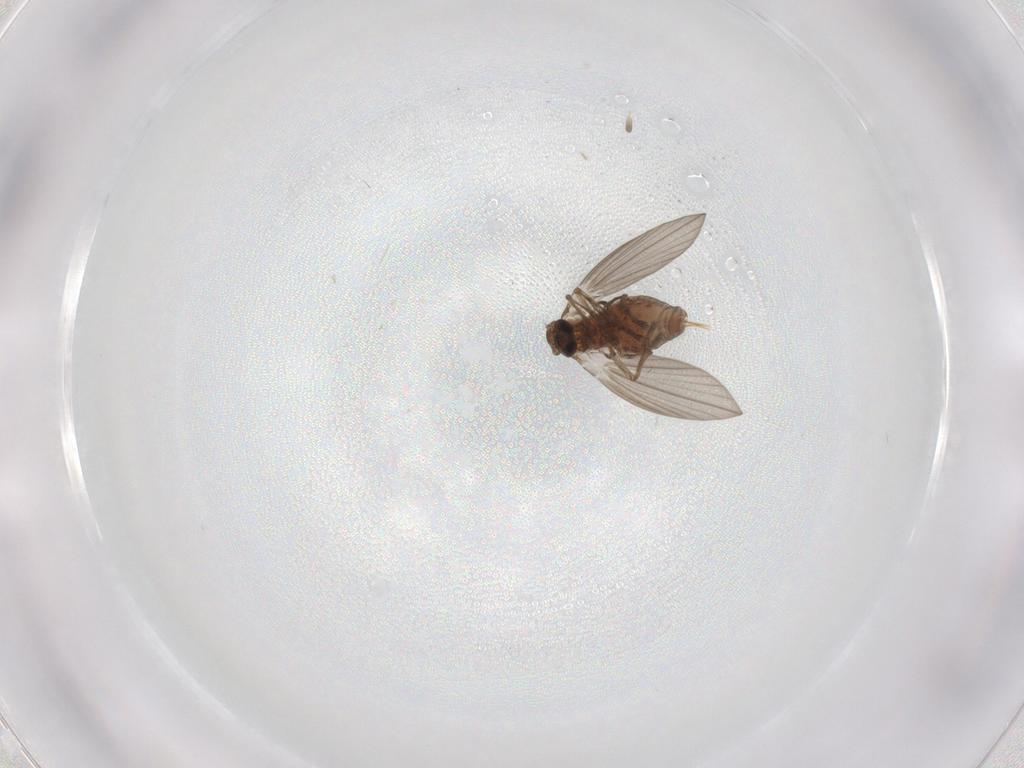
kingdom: Animalia
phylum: Arthropoda
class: Insecta
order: Diptera
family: Psychodidae
